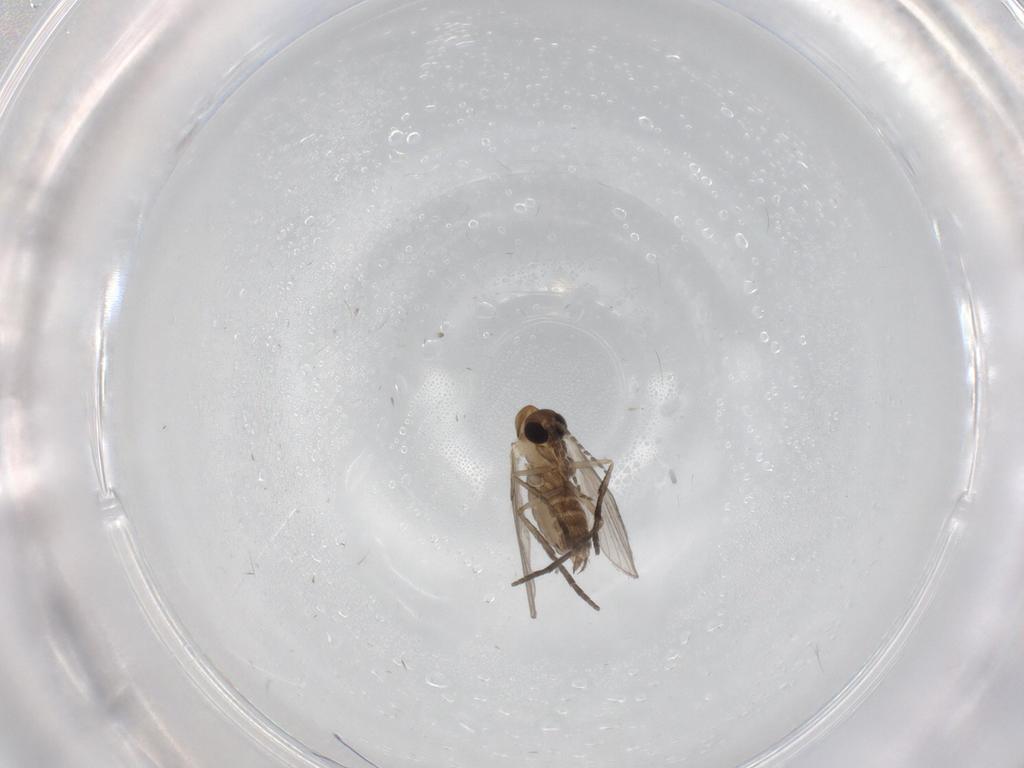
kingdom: Animalia
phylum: Arthropoda
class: Insecta
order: Diptera
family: Psychodidae
